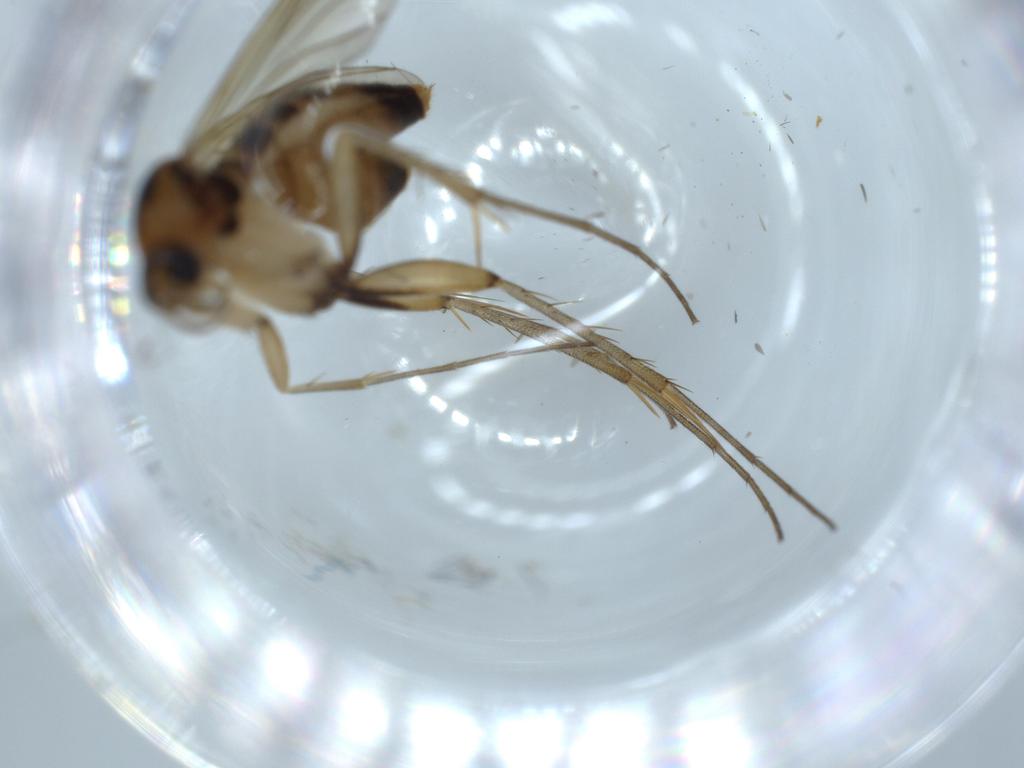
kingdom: Animalia
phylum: Arthropoda
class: Insecta
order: Diptera
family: Mycetophilidae
